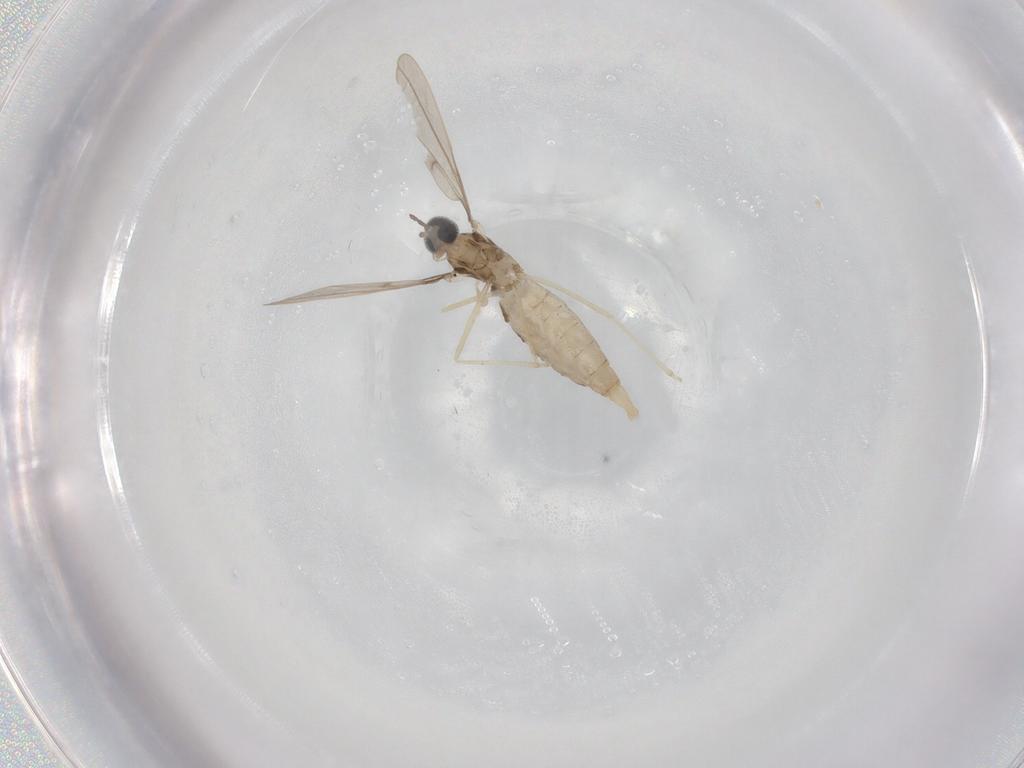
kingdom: Animalia
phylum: Arthropoda
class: Insecta
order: Diptera
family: Cecidomyiidae
